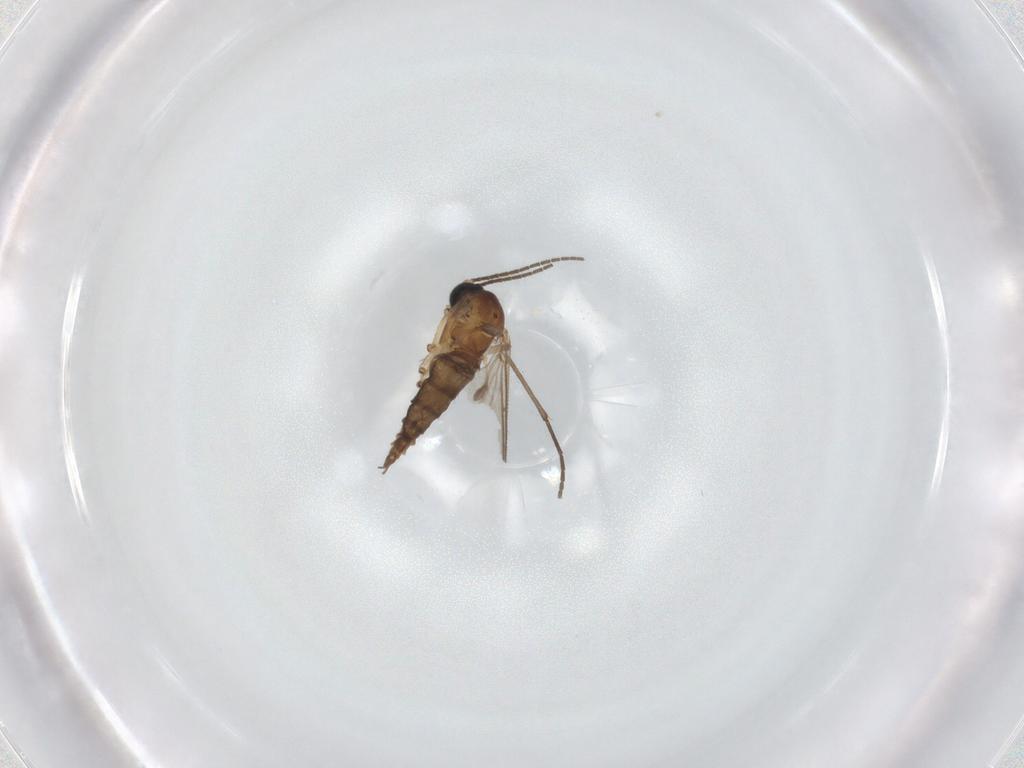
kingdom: Animalia
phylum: Arthropoda
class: Insecta
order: Diptera
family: Sciaridae
